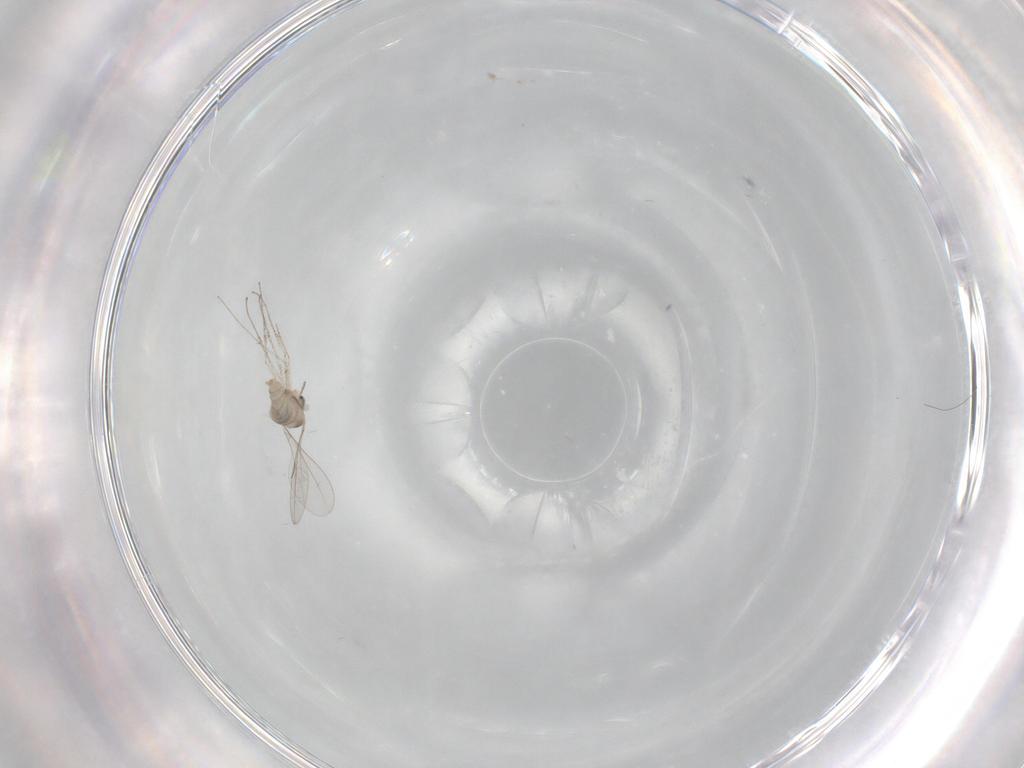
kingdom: Animalia
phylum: Arthropoda
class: Insecta
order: Diptera
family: Cecidomyiidae
